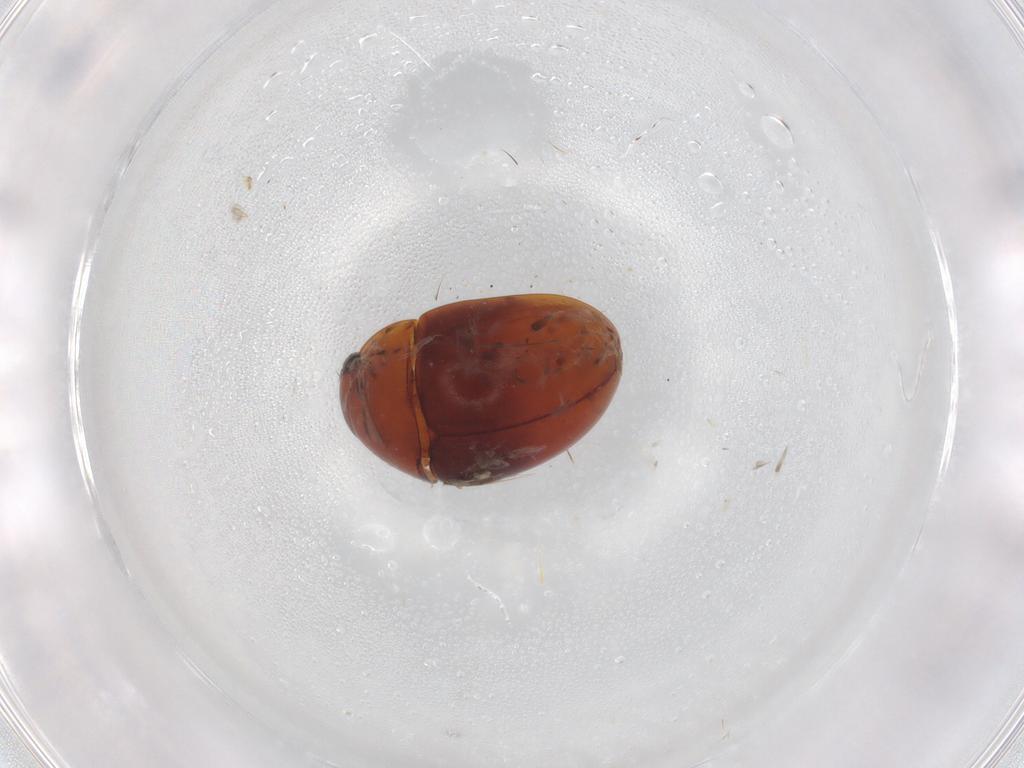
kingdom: Animalia
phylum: Arthropoda
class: Insecta
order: Coleoptera
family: Phalacridae
